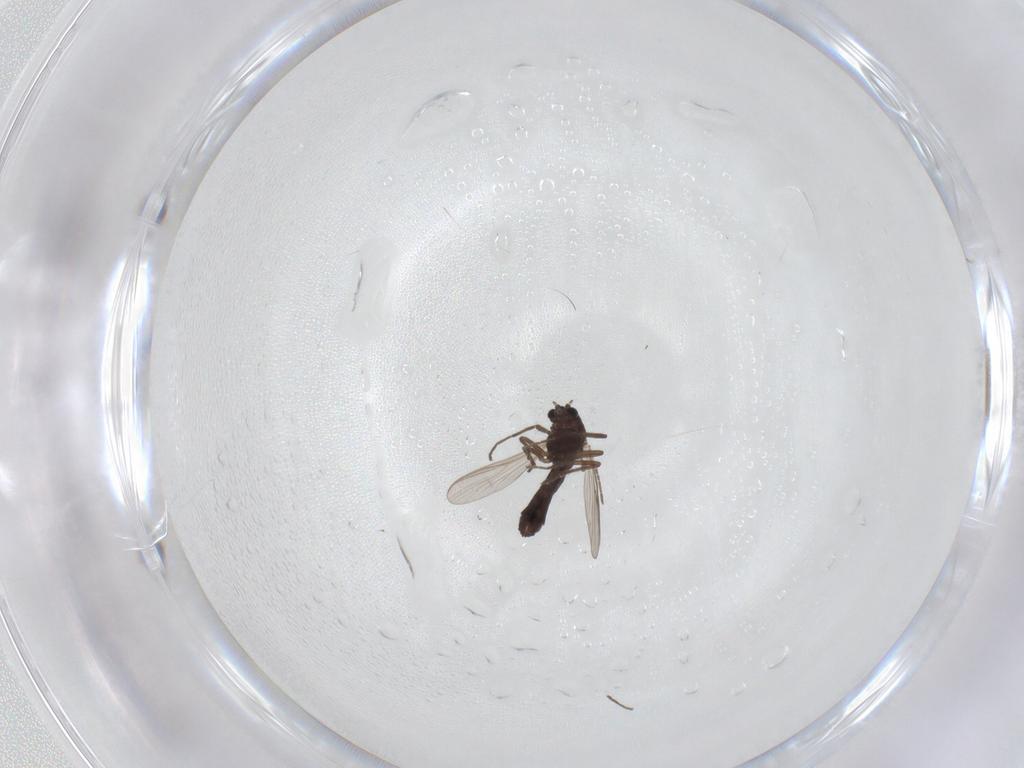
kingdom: Animalia
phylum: Arthropoda
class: Insecta
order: Diptera
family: Chironomidae
